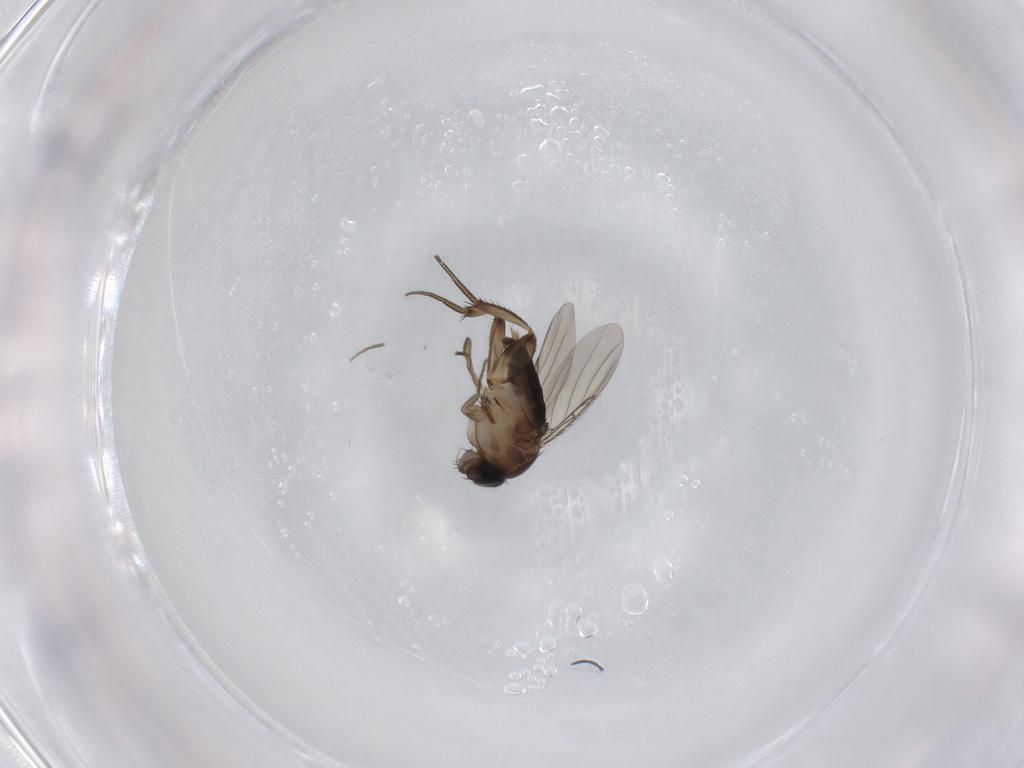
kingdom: Animalia
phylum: Arthropoda
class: Insecta
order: Diptera
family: Phoridae
